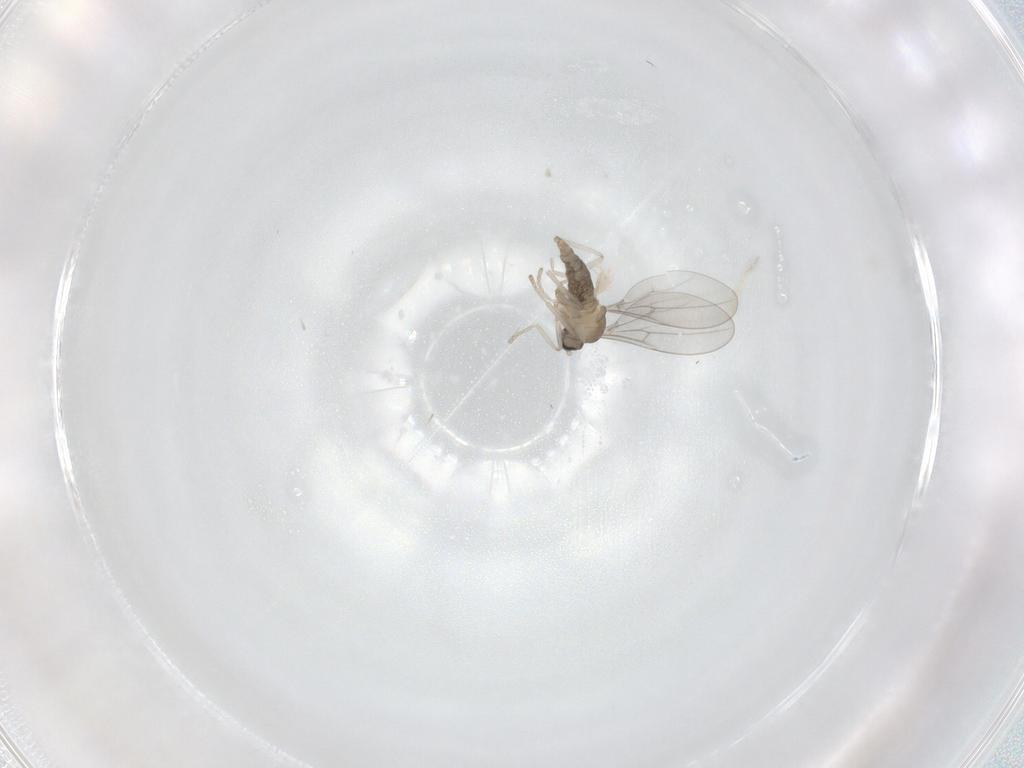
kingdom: Animalia
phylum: Arthropoda
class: Insecta
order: Diptera
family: Cecidomyiidae
